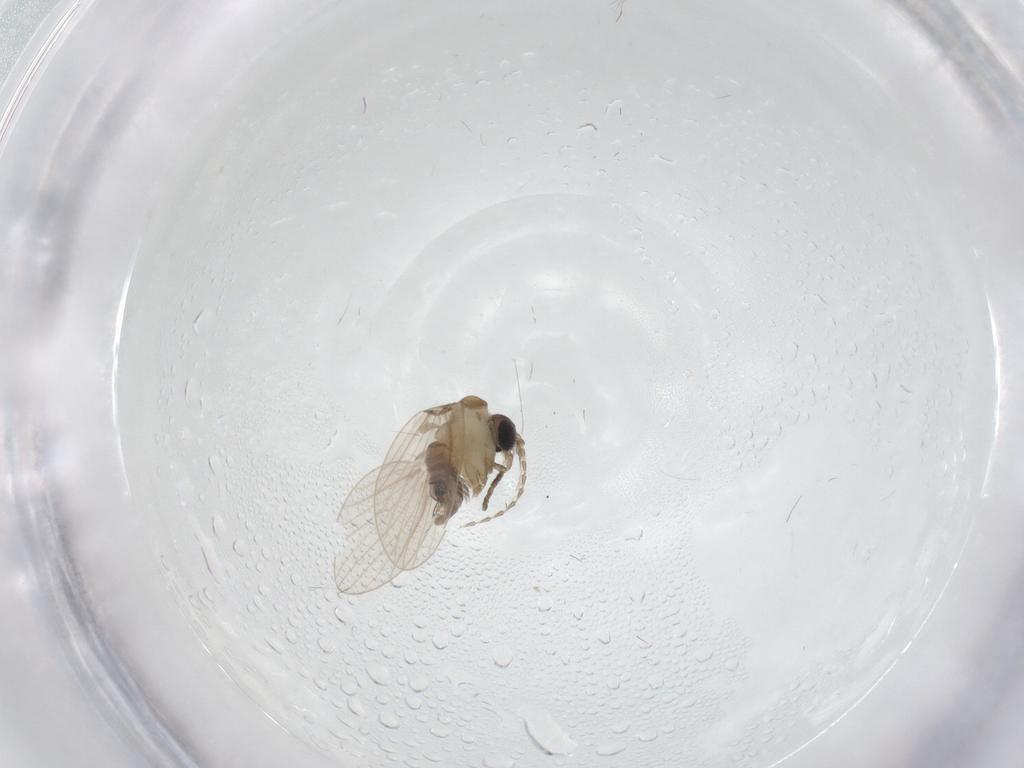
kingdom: Animalia
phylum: Arthropoda
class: Insecta
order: Diptera
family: Psychodidae
